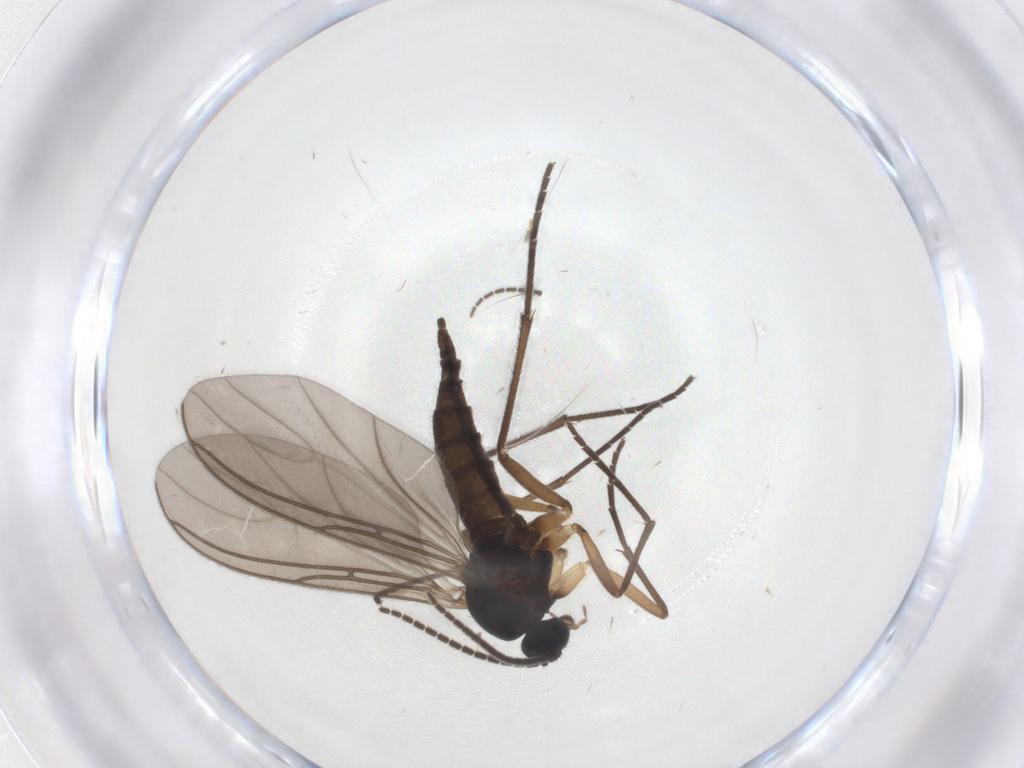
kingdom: Animalia
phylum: Arthropoda
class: Insecta
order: Diptera
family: Sciaridae
